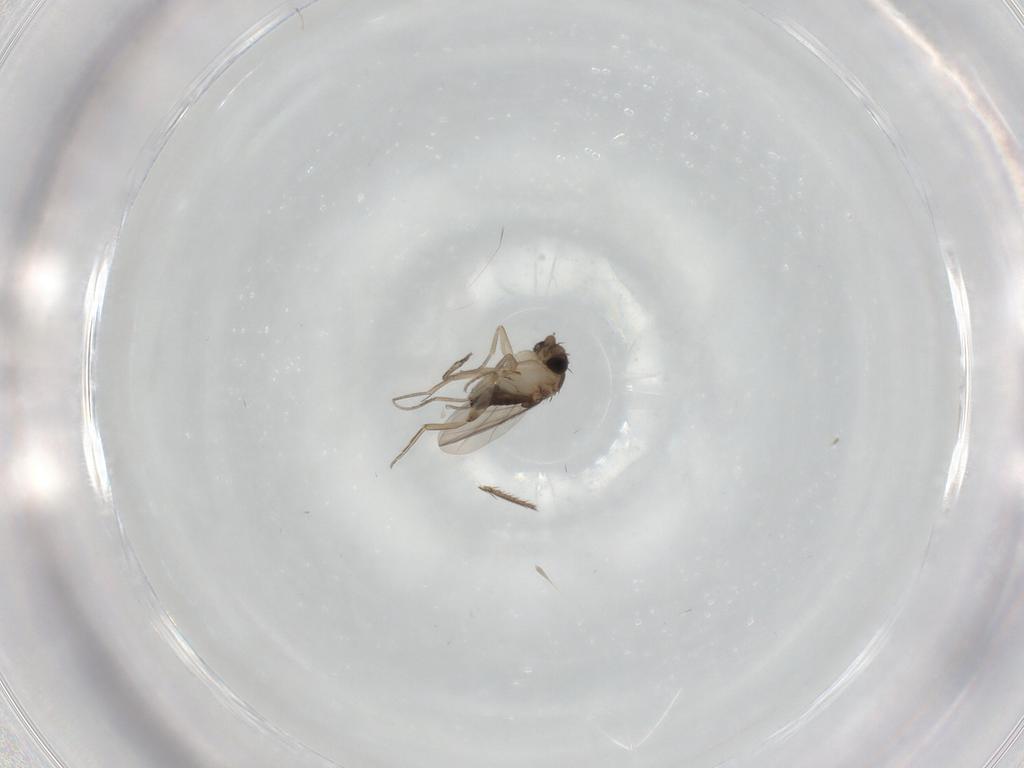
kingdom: Animalia
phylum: Arthropoda
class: Insecta
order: Diptera
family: Phoridae
